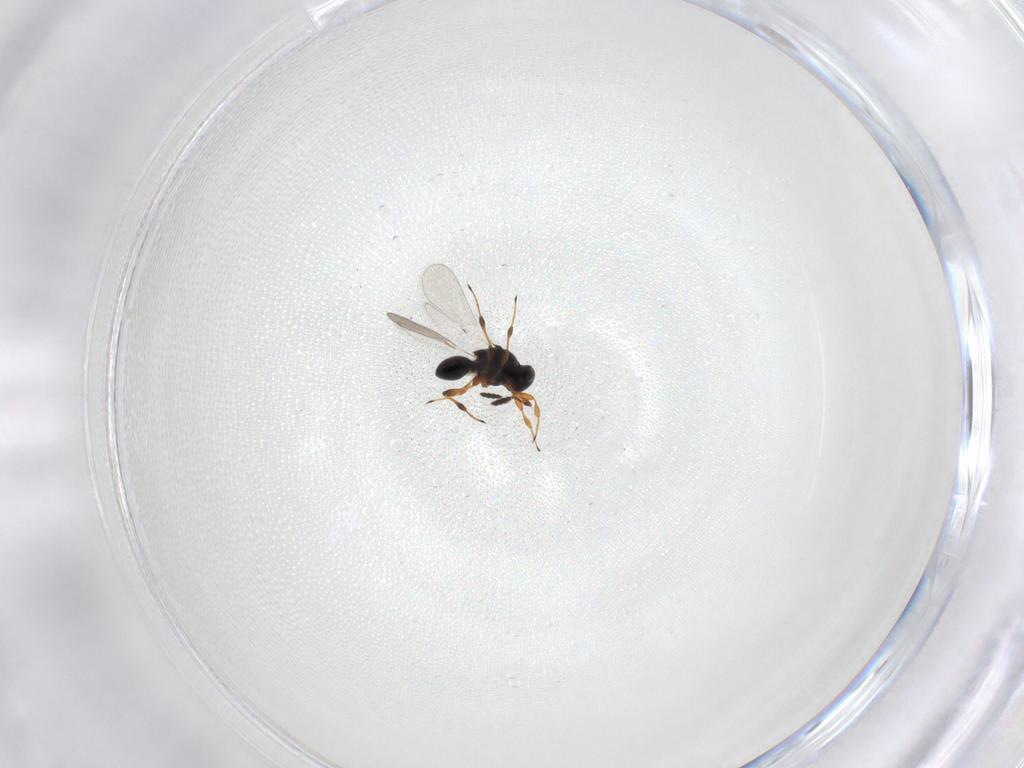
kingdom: Animalia
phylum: Arthropoda
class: Insecta
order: Hymenoptera
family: Platygastridae
